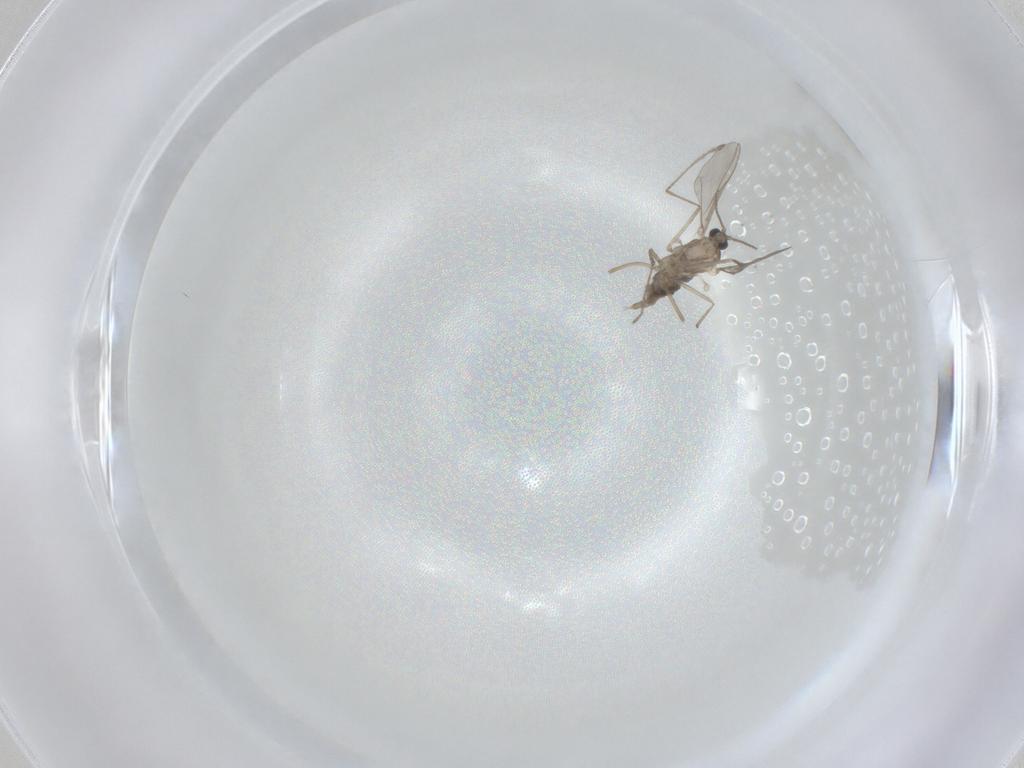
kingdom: Animalia
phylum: Arthropoda
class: Insecta
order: Diptera
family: Cecidomyiidae
